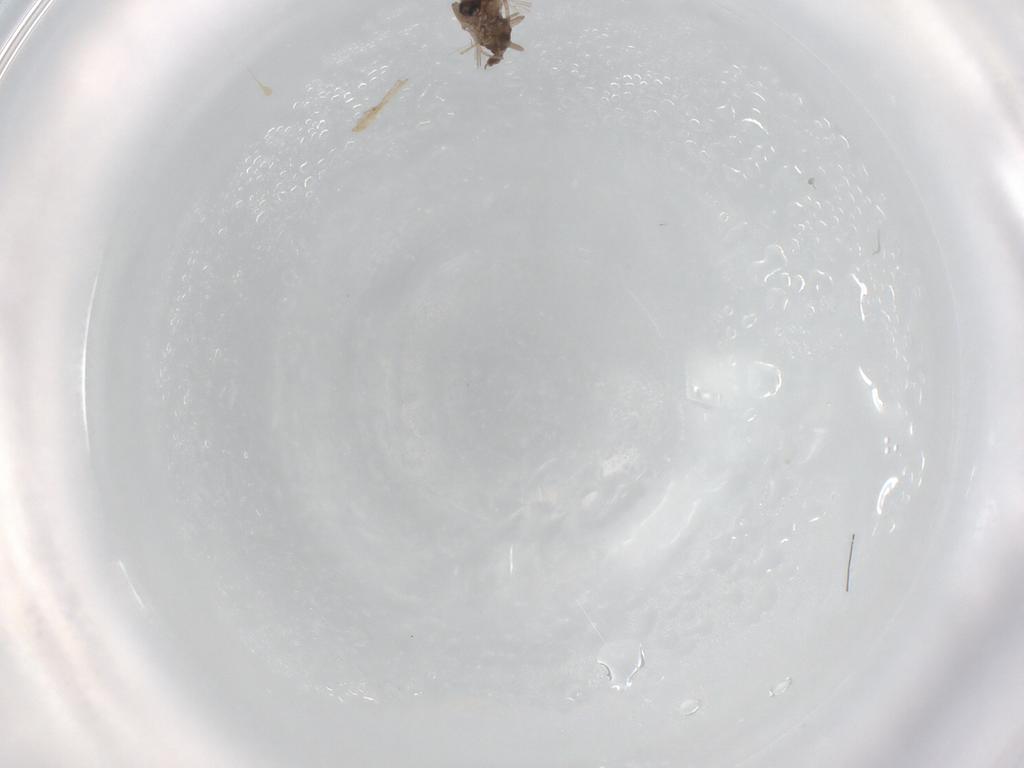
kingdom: Animalia
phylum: Arthropoda
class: Insecta
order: Diptera
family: Cecidomyiidae
